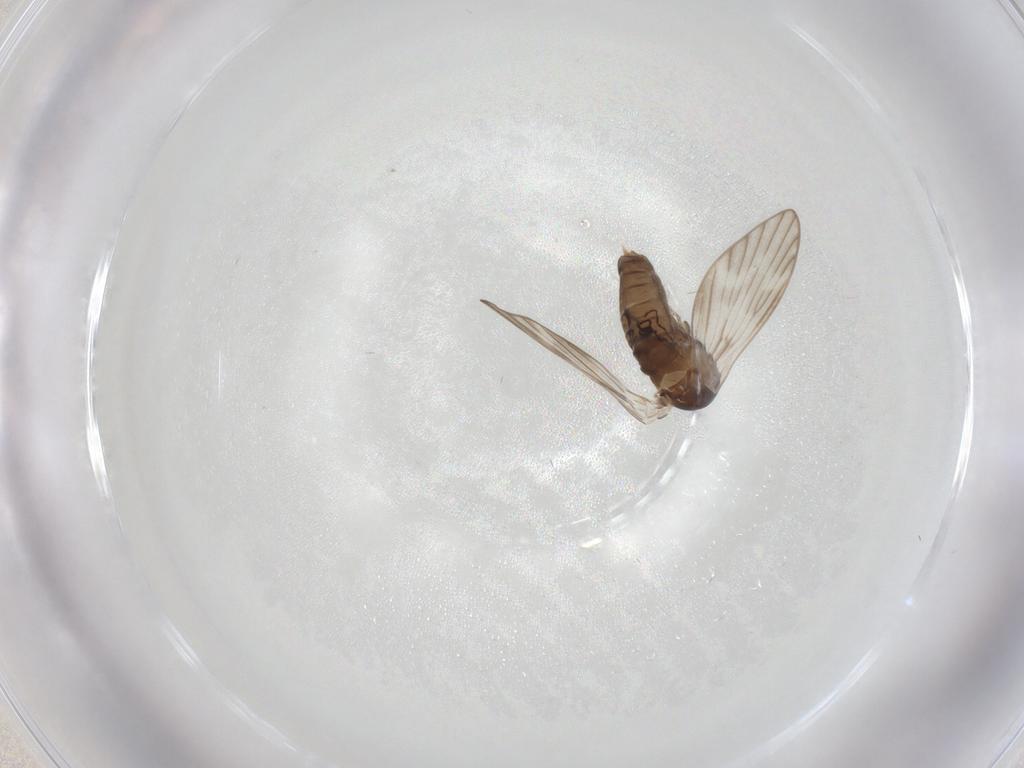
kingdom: Animalia
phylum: Arthropoda
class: Insecta
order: Diptera
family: Psychodidae
